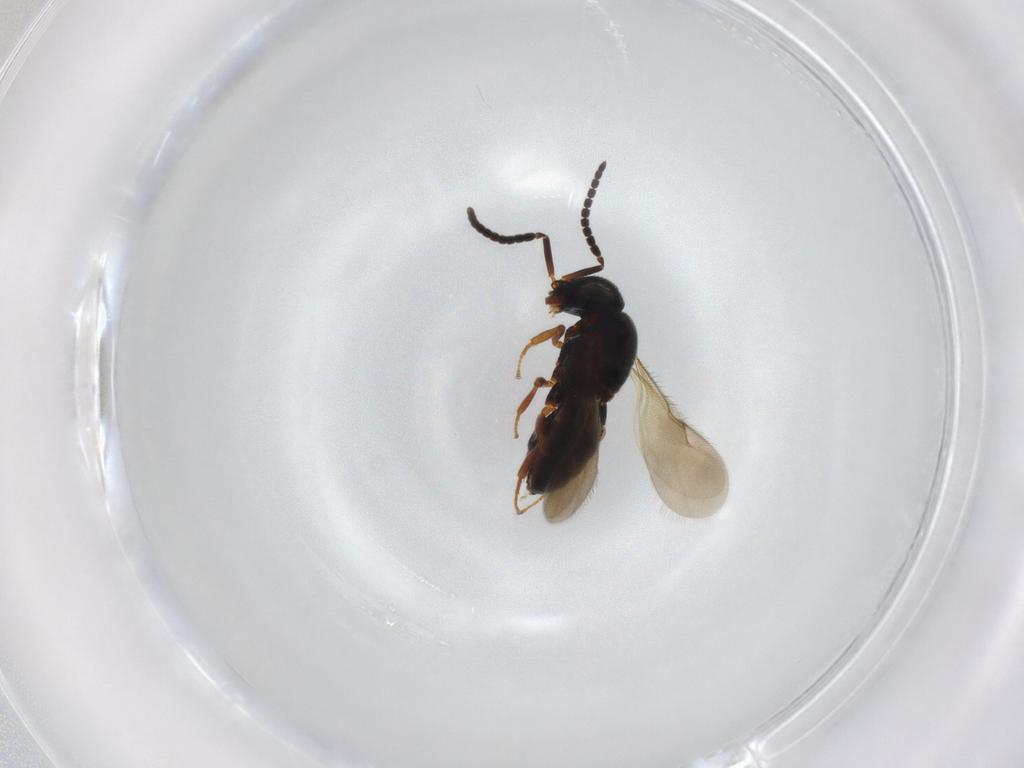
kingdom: Animalia
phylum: Arthropoda
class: Insecta
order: Hymenoptera
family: Scelionidae
